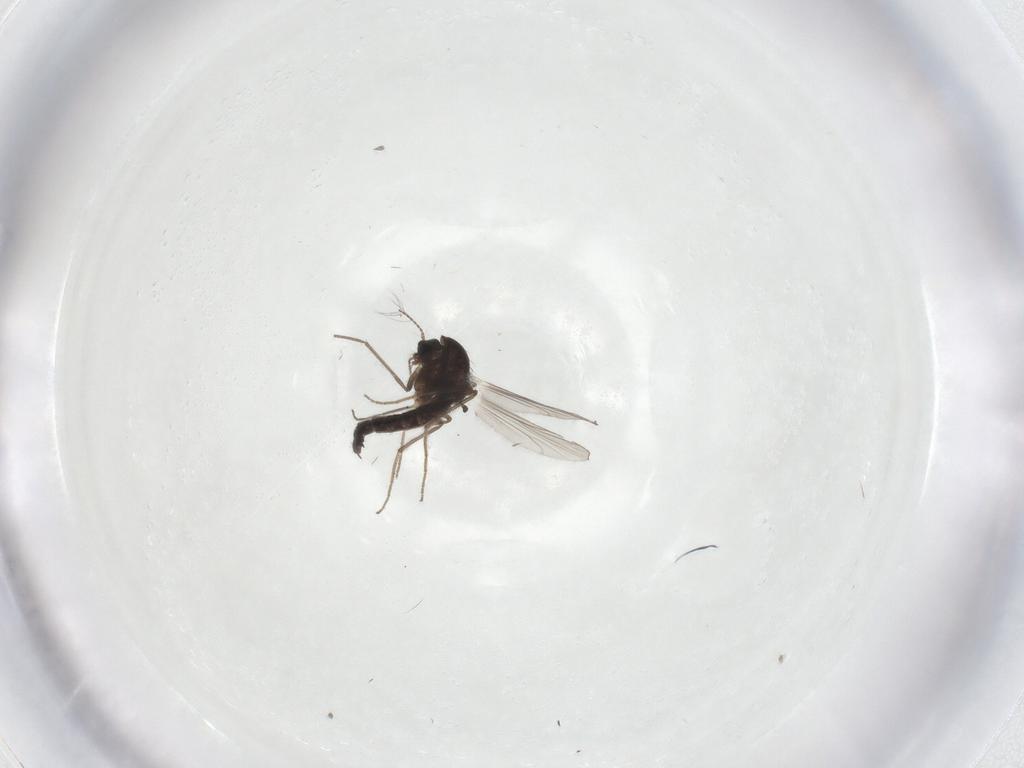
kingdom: Animalia
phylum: Arthropoda
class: Insecta
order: Diptera
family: Chironomidae
